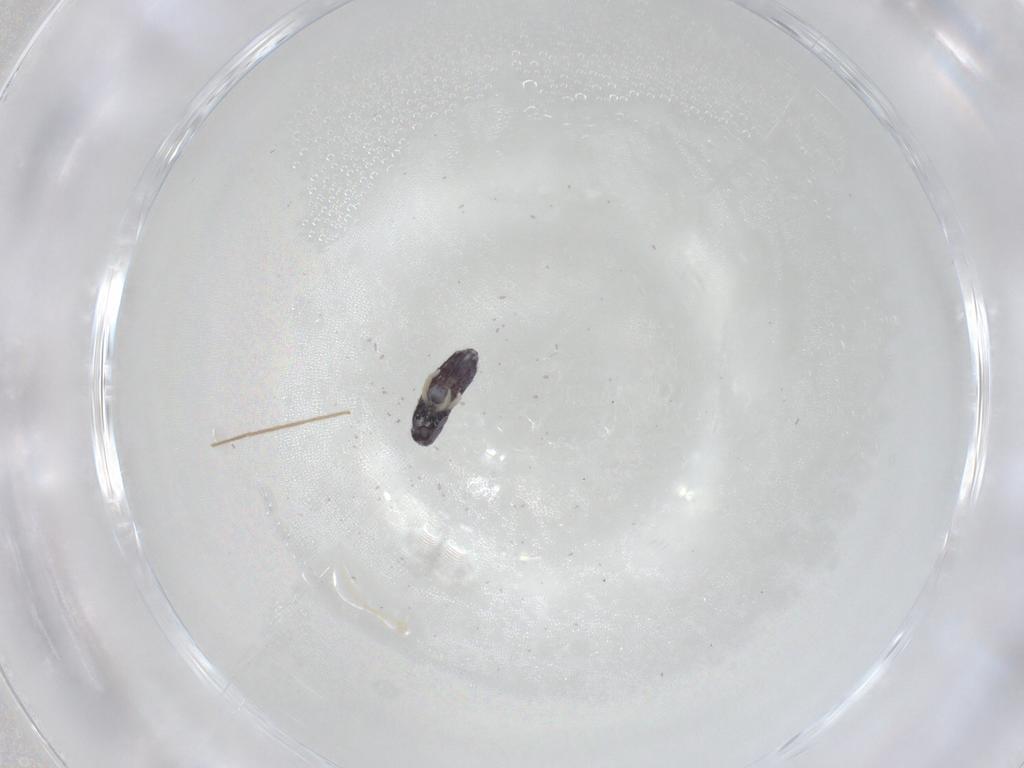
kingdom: Animalia
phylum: Arthropoda
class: Collembola
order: Entomobryomorpha
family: Entomobryidae
